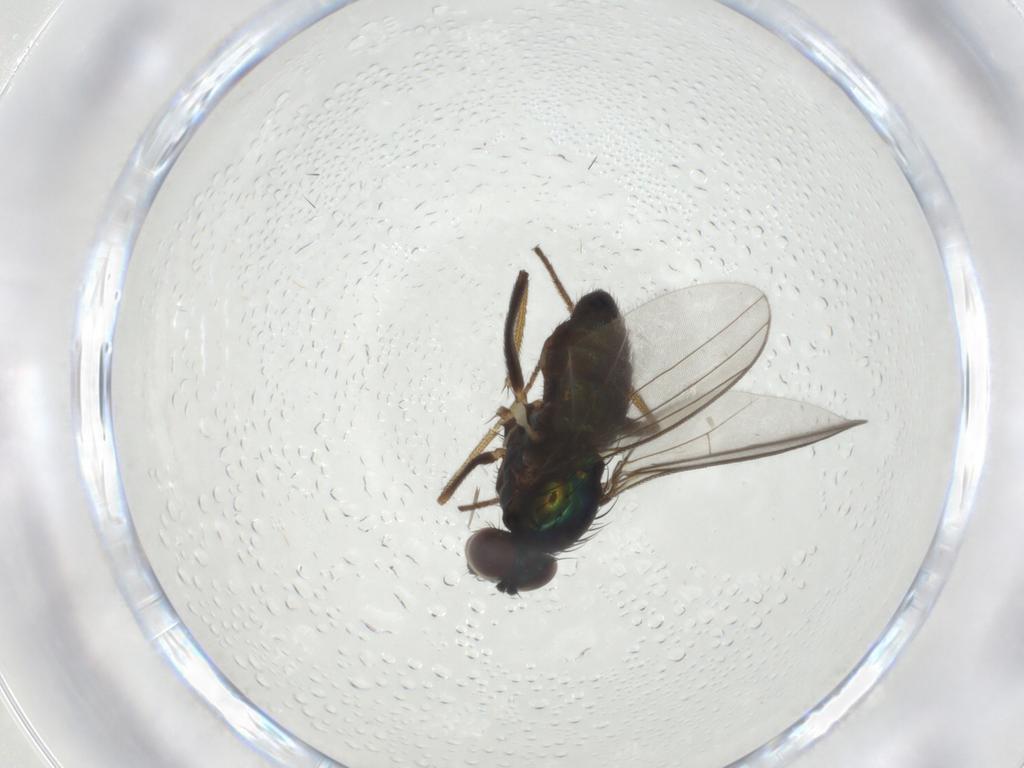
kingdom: Animalia
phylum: Arthropoda
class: Insecta
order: Diptera
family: Dolichopodidae
